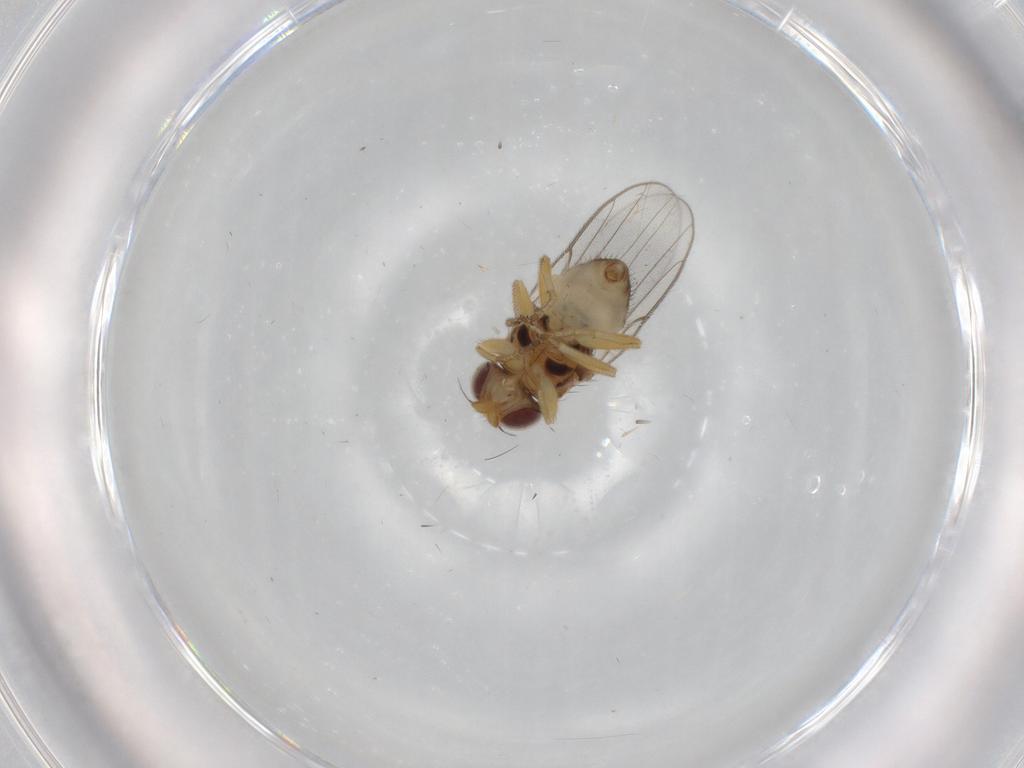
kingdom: Animalia
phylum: Arthropoda
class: Insecta
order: Diptera
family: Chloropidae
